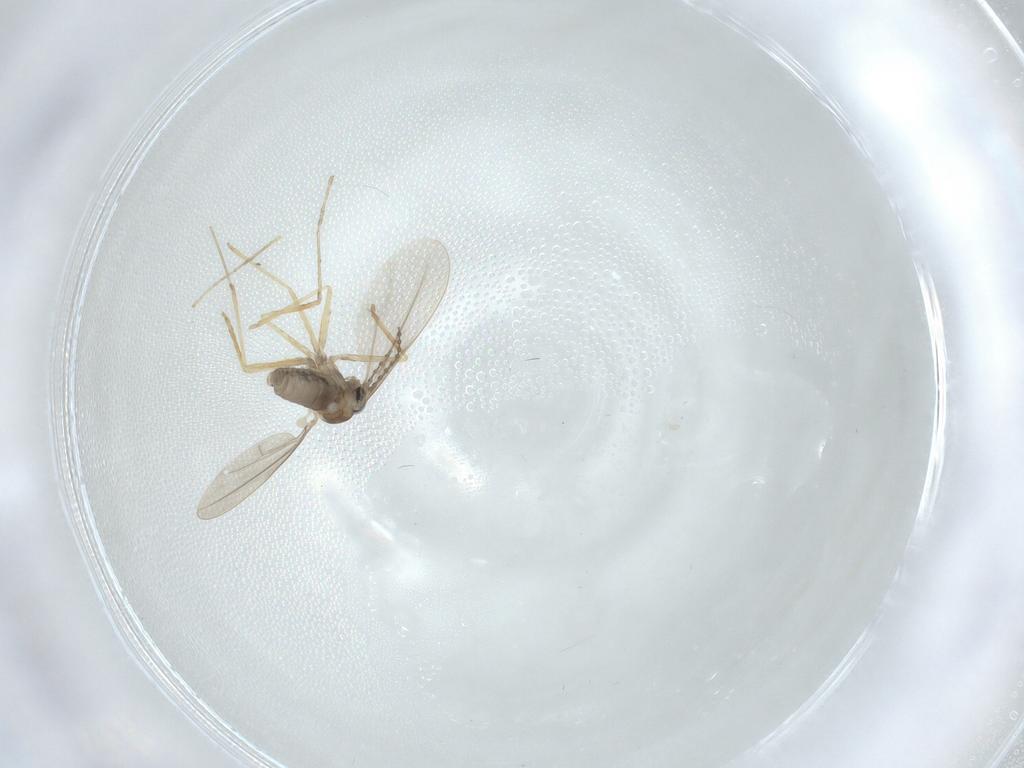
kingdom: Animalia
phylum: Arthropoda
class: Insecta
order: Diptera
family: Cecidomyiidae
